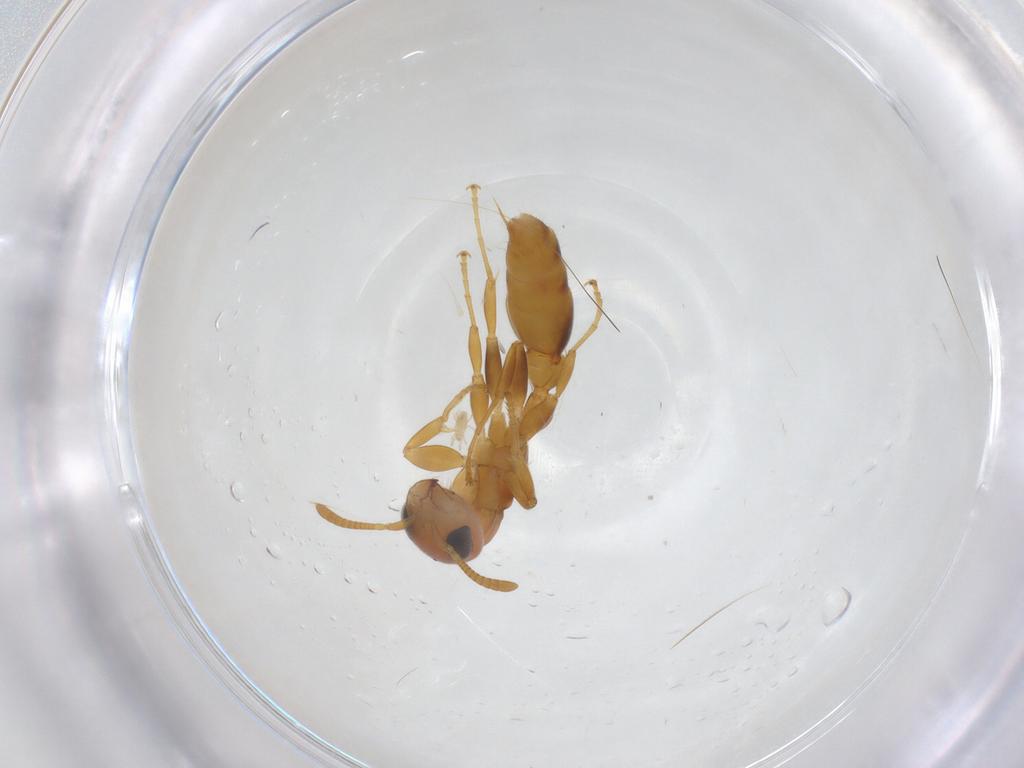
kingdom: Animalia
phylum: Arthropoda
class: Insecta
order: Hymenoptera
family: Formicidae
